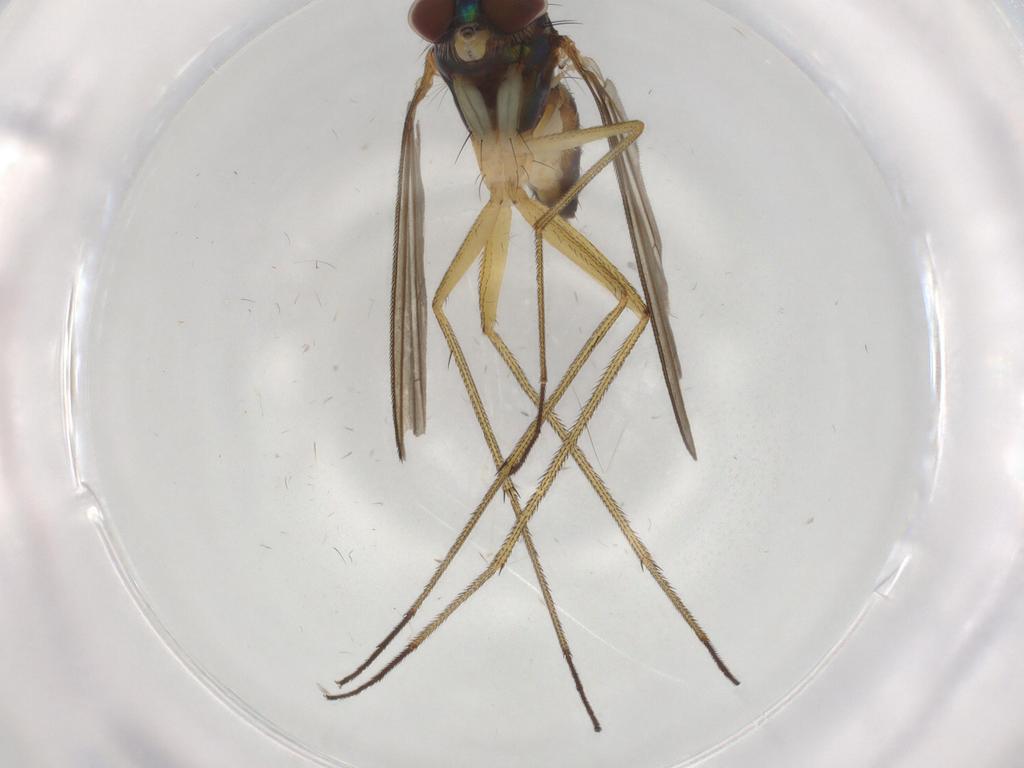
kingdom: Animalia
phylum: Arthropoda
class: Insecta
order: Diptera
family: Dolichopodidae
